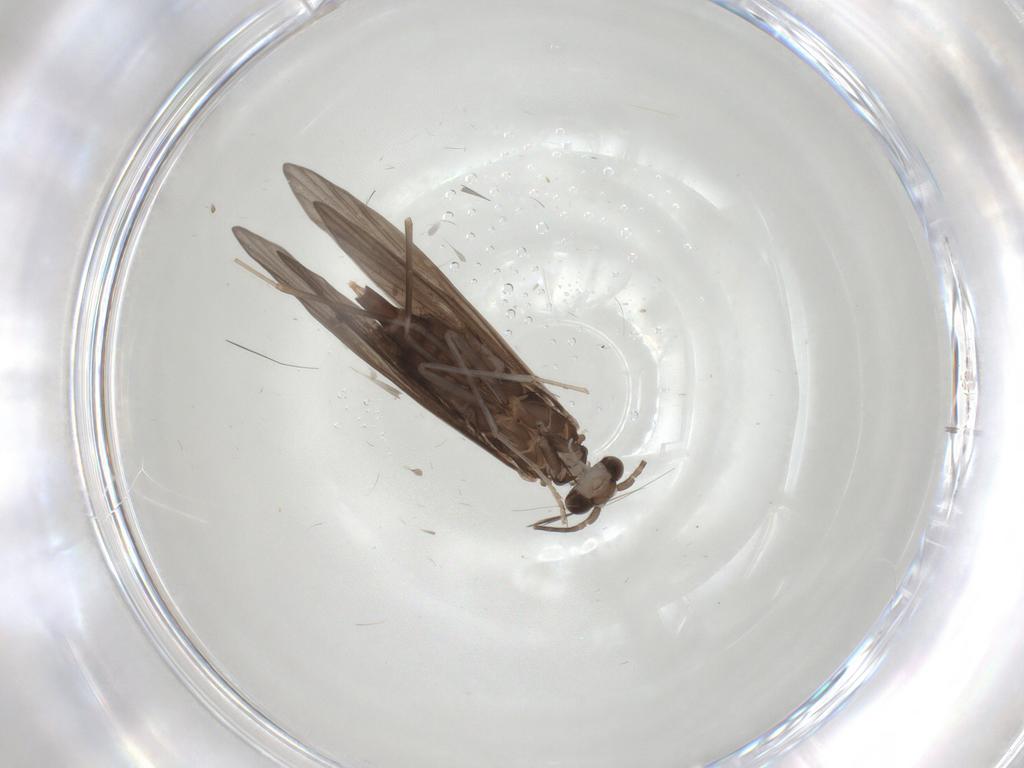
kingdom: Animalia
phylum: Arthropoda
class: Insecta
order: Trichoptera
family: Xiphocentronidae
